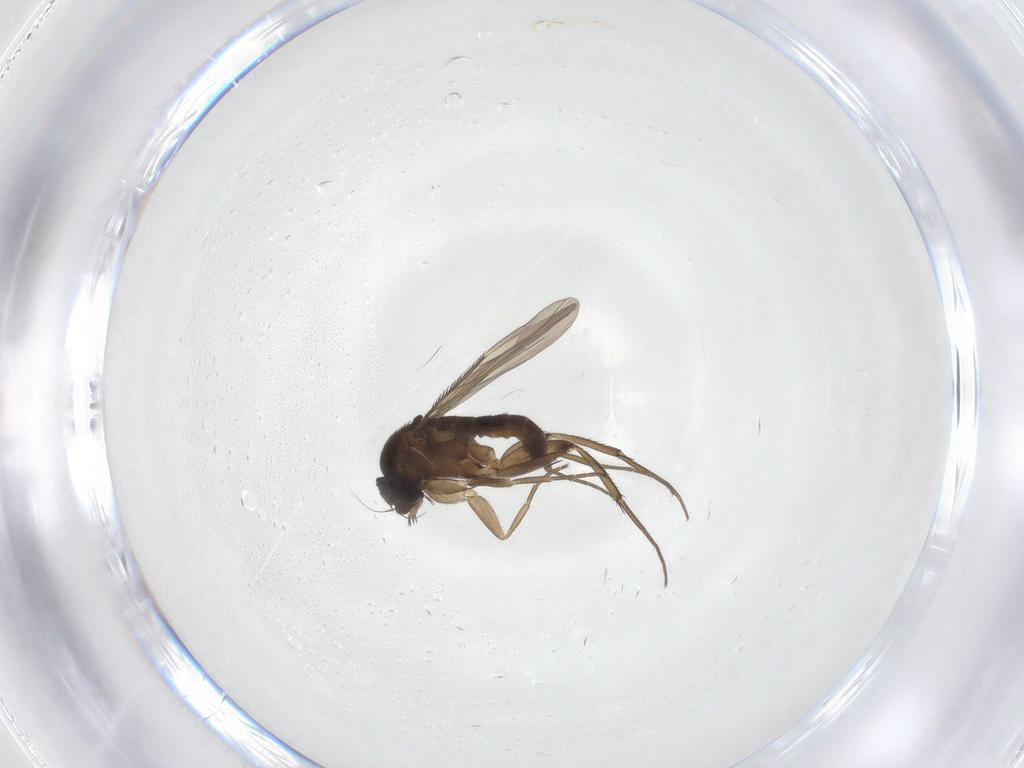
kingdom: Animalia
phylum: Arthropoda
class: Insecta
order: Diptera
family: Phoridae
